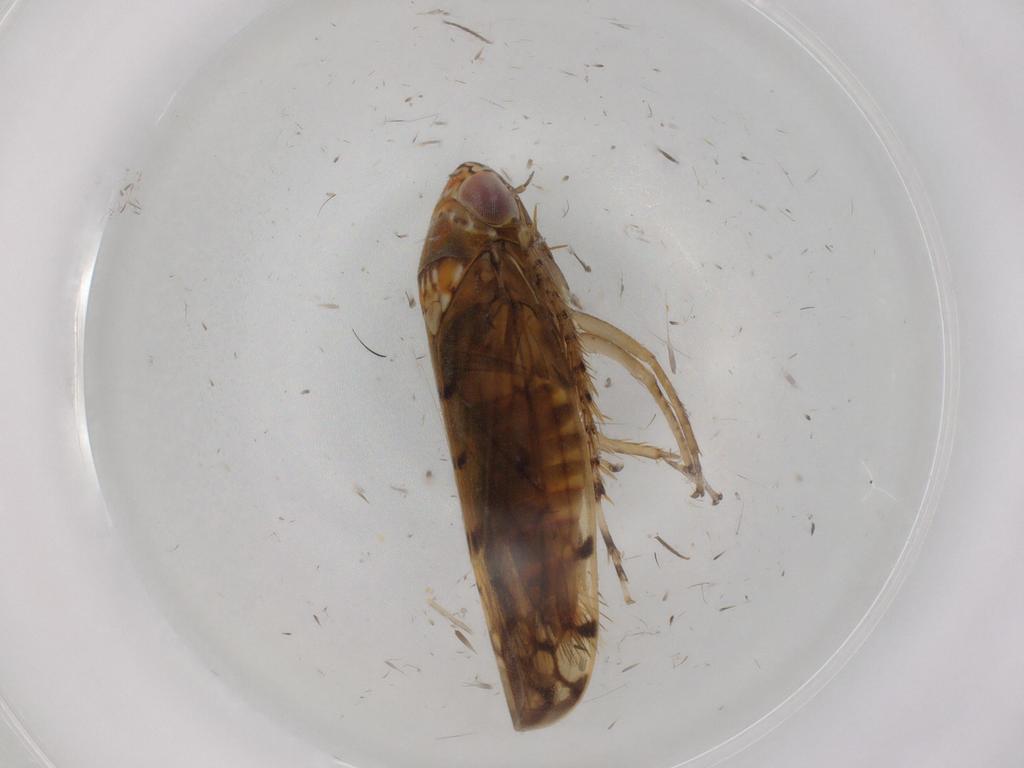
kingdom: Animalia
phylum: Arthropoda
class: Insecta
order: Hemiptera
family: Cicadellidae
